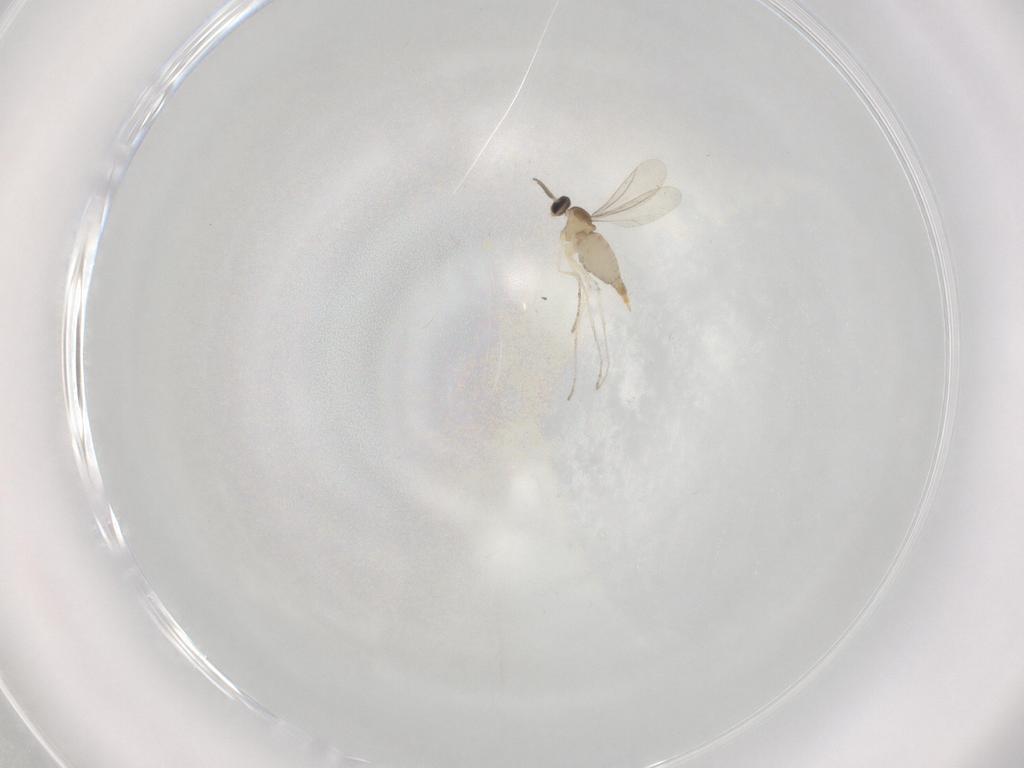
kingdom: Animalia
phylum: Arthropoda
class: Insecta
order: Diptera
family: Cecidomyiidae
